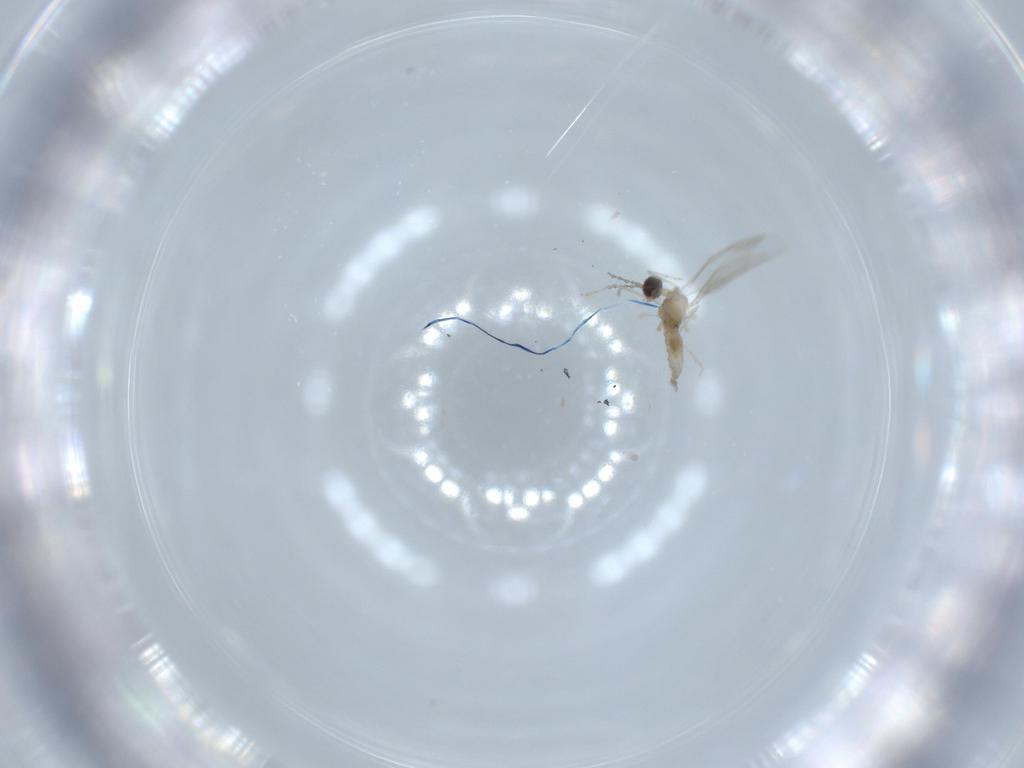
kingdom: Animalia
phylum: Arthropoda
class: Insecta
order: Diptera
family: Cecidomyiidae
